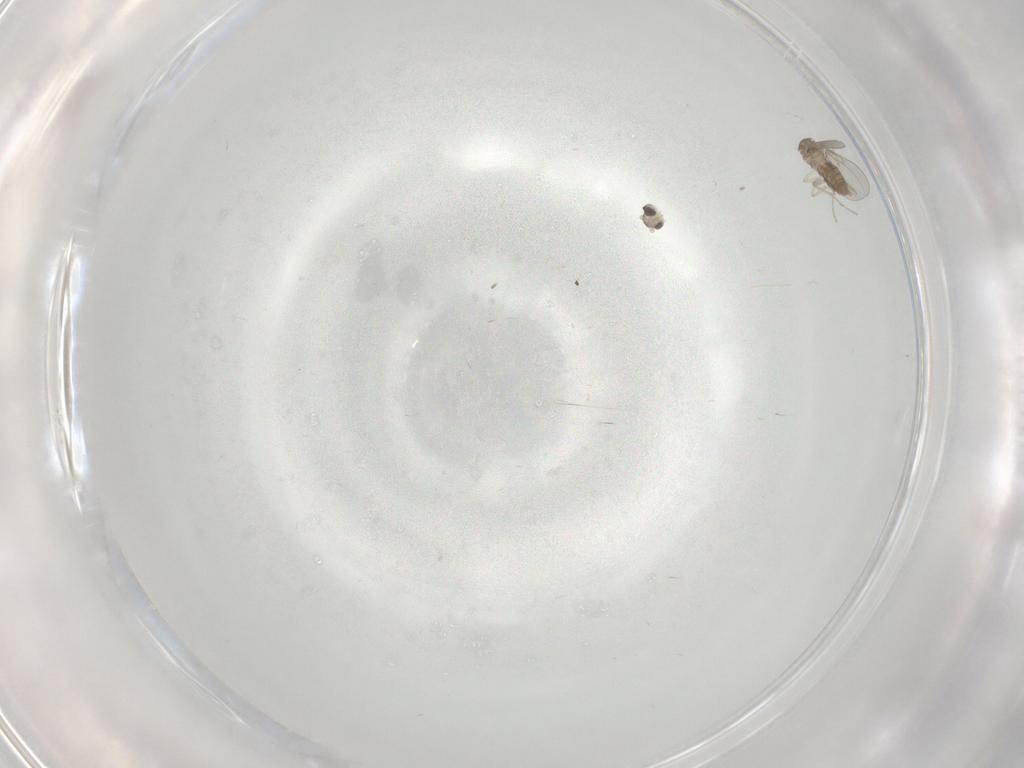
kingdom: Animalia
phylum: Arthropoda
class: Insecta
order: Diptera
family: Cecidomyiidae
